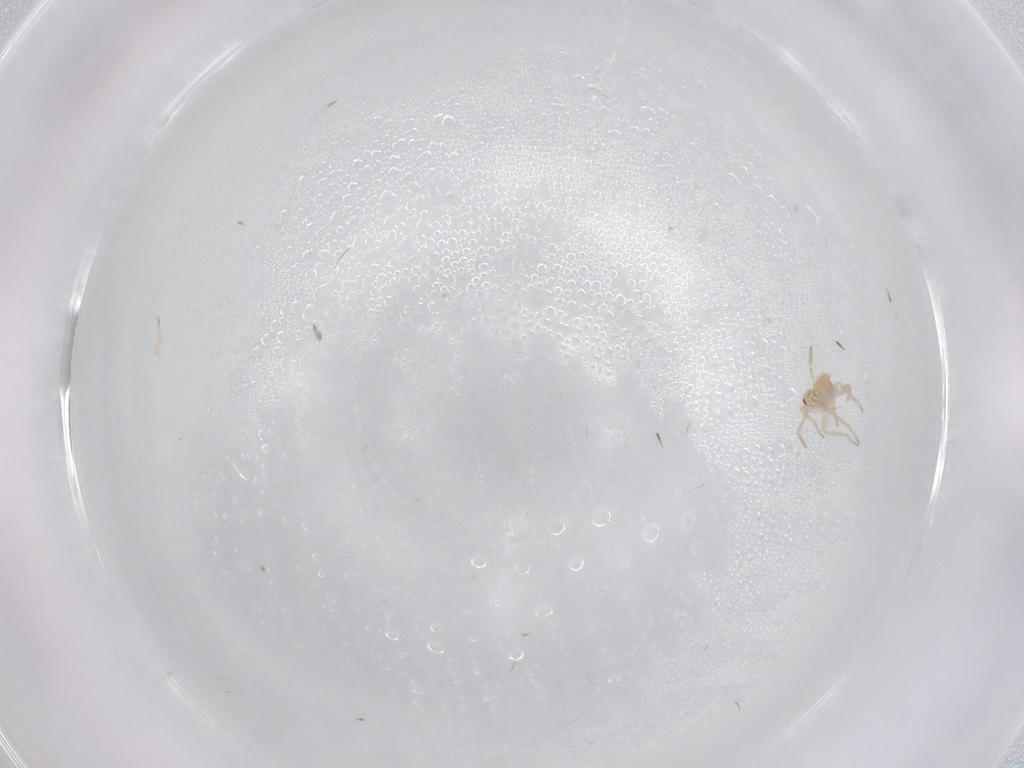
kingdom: Animalia
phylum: Arthropoda
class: Insecta
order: Hemiptera
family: Miridae
